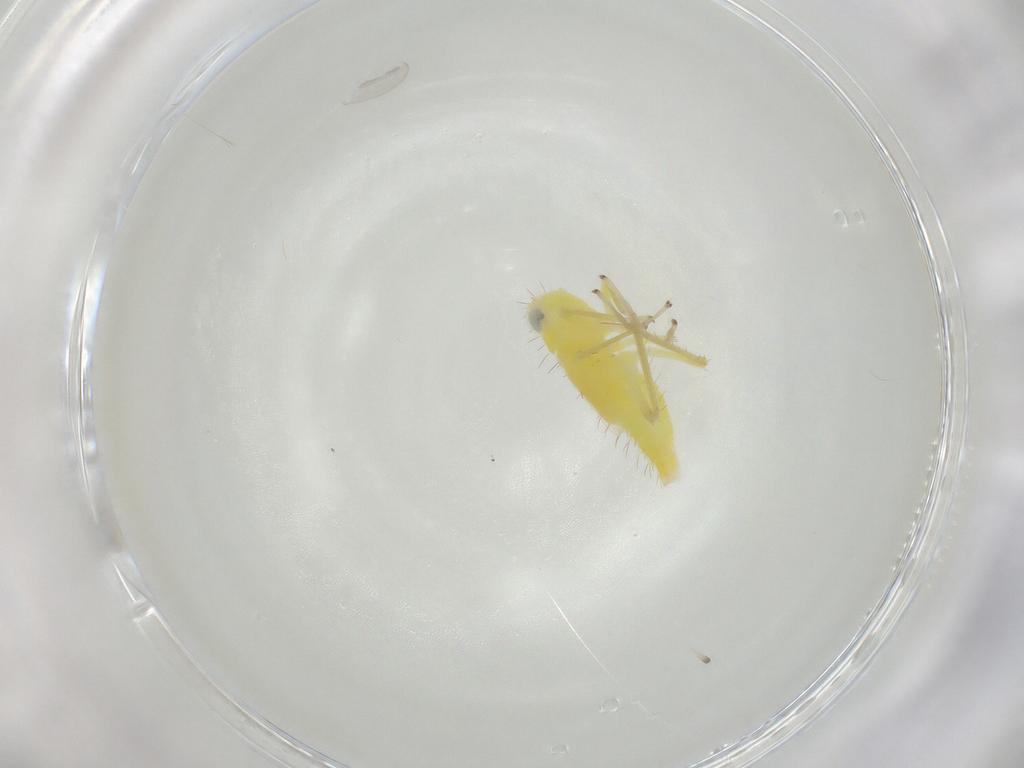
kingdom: Animalia
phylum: Arthropoda
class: Insecta
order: Hemiptera
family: Cicadellidae
